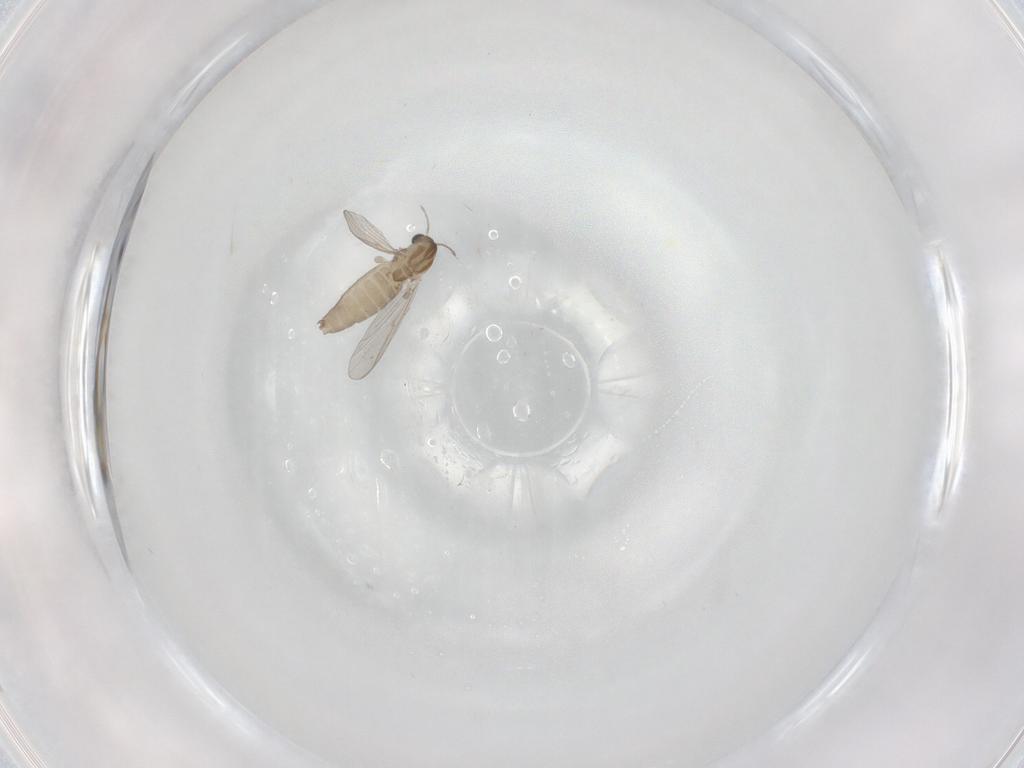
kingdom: Animalia
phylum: Arthropoda
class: Insecta
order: Diptera
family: Chironomidae
